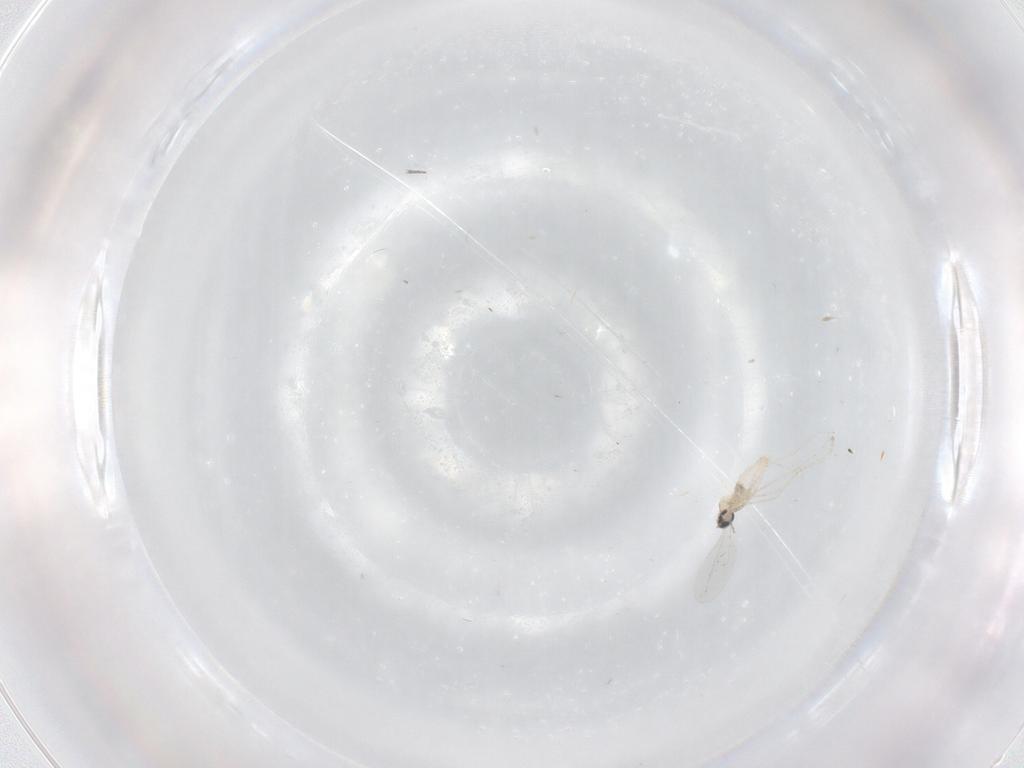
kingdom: Animalia
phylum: Arthropoda
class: Insecta
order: Diptera
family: Cecidomyiidae
